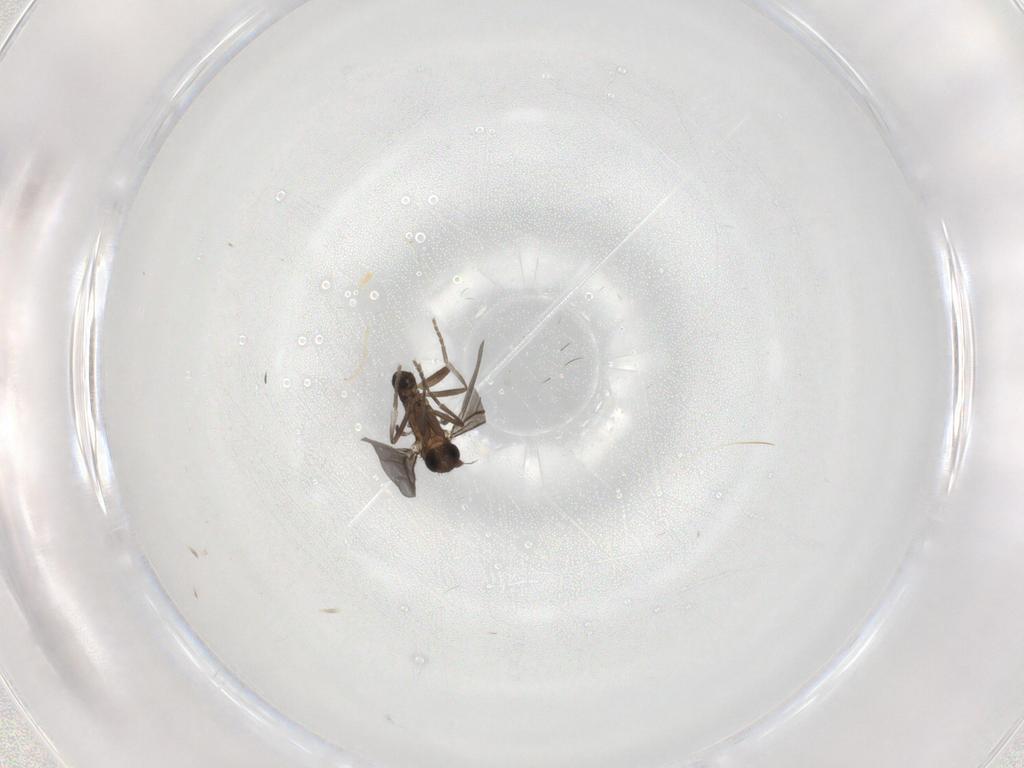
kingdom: Animalia
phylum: Arthropoda
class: Insecta
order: Diptera
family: Phoridae
